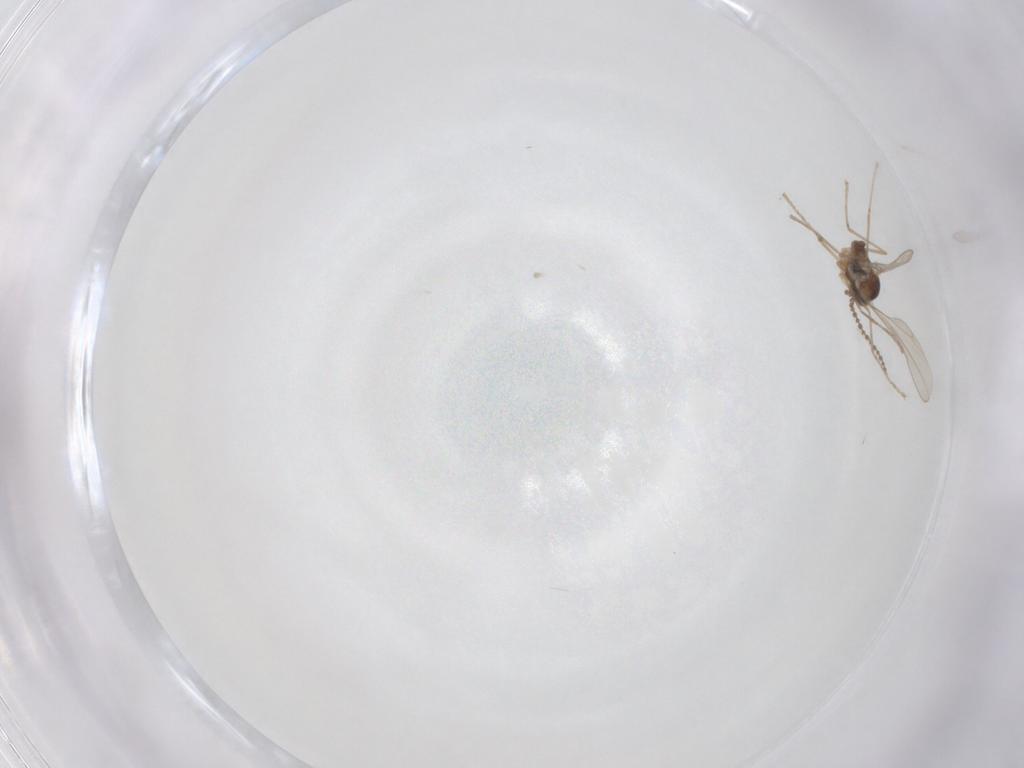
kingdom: Animalia
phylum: Arthropoda
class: Insecta
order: Diptera
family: Cecidomyiidae
